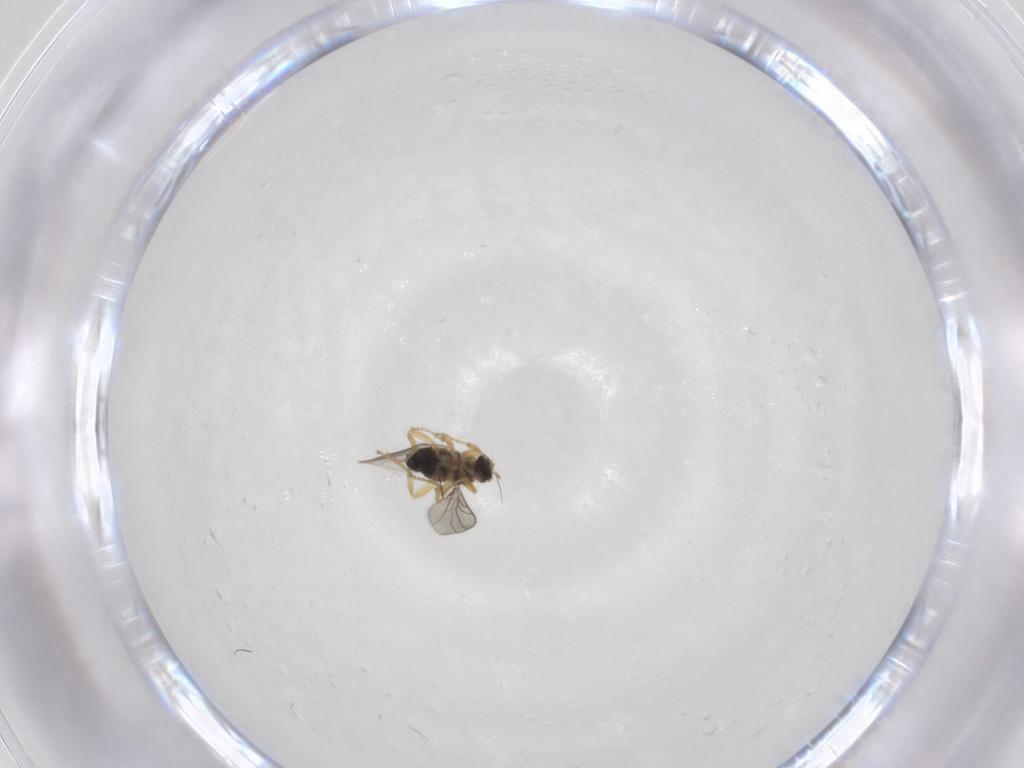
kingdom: Animalia
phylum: Arthropoda
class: Insecta
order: Diptera
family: Hybotidae
